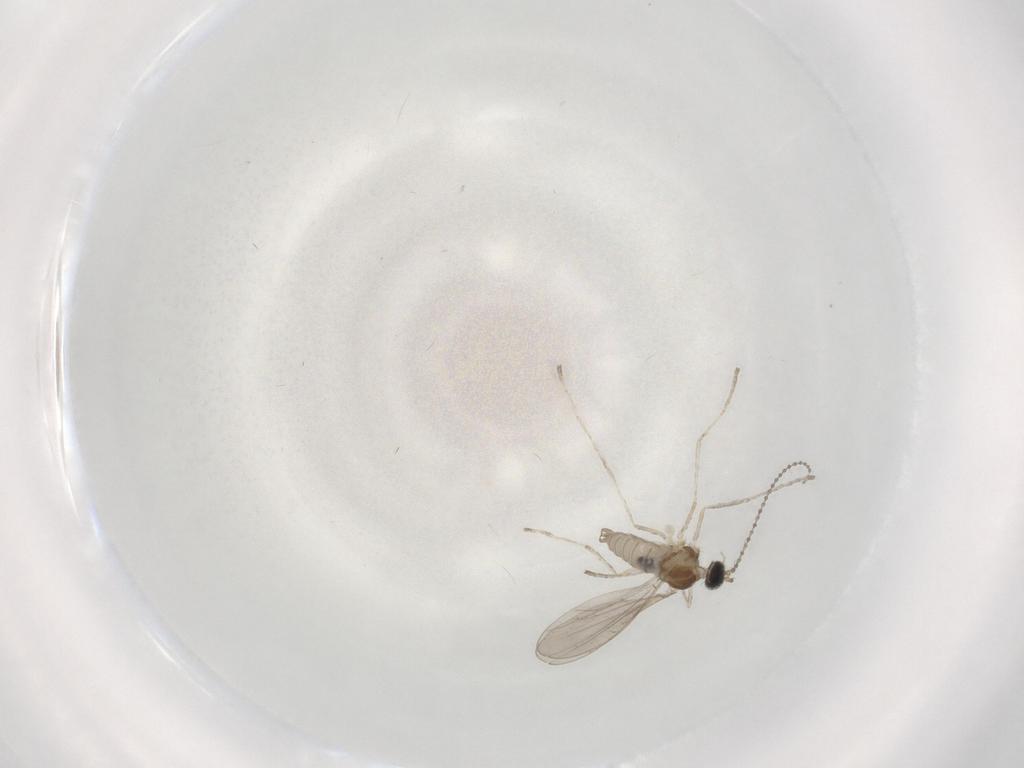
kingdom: Animalia
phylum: Arthropoda
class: Insecta
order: Diptera
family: Cecidomyiidae
